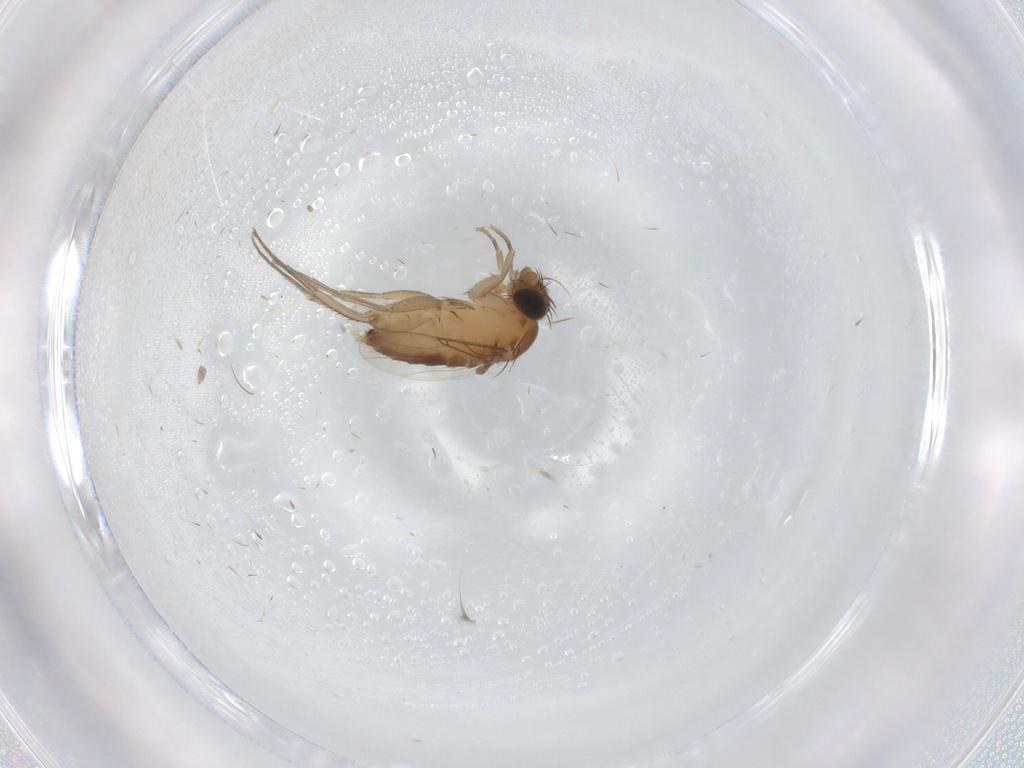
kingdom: Animalia
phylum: Arthropoda
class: Insecta
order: Diptera
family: Phoridae
